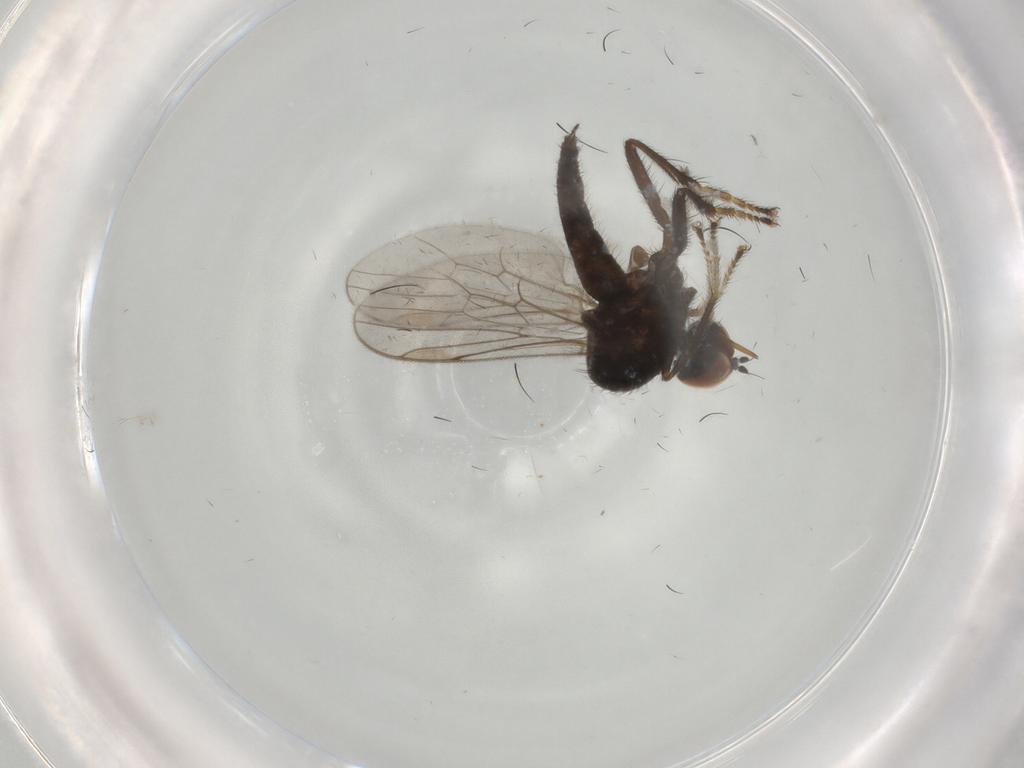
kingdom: Animalia
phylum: Arthropoda
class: Insecta
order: Diptera
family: Hybotidae
